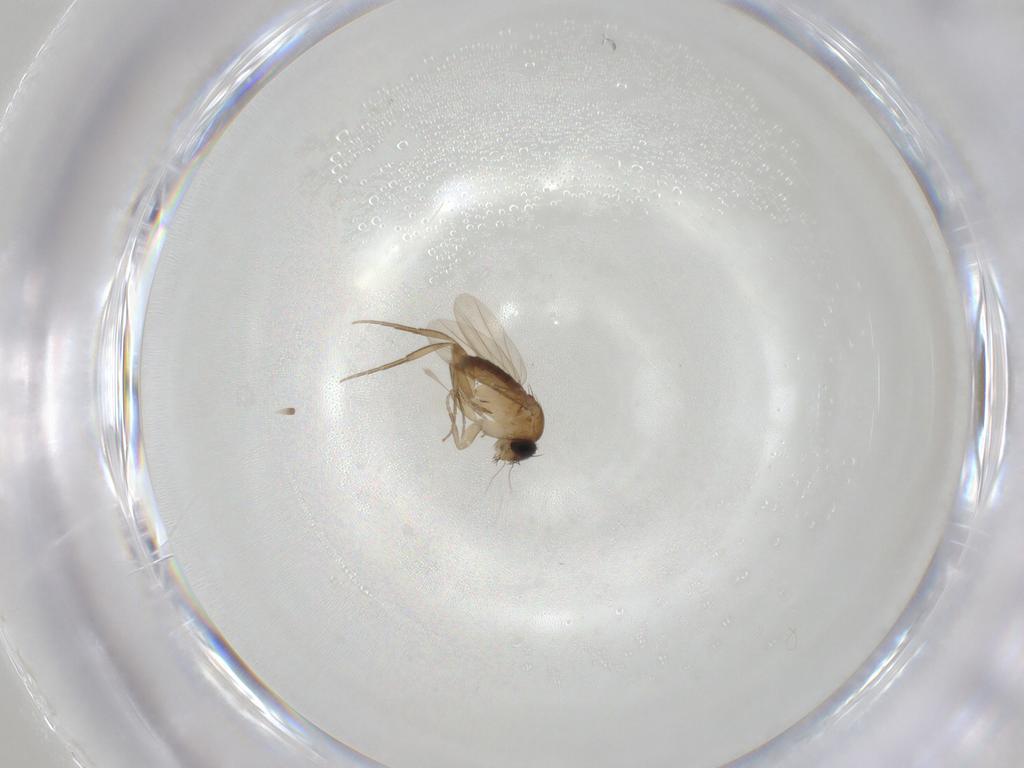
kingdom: Animalia
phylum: Arthropoda
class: Insecta
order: Diptera
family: Phoridae
